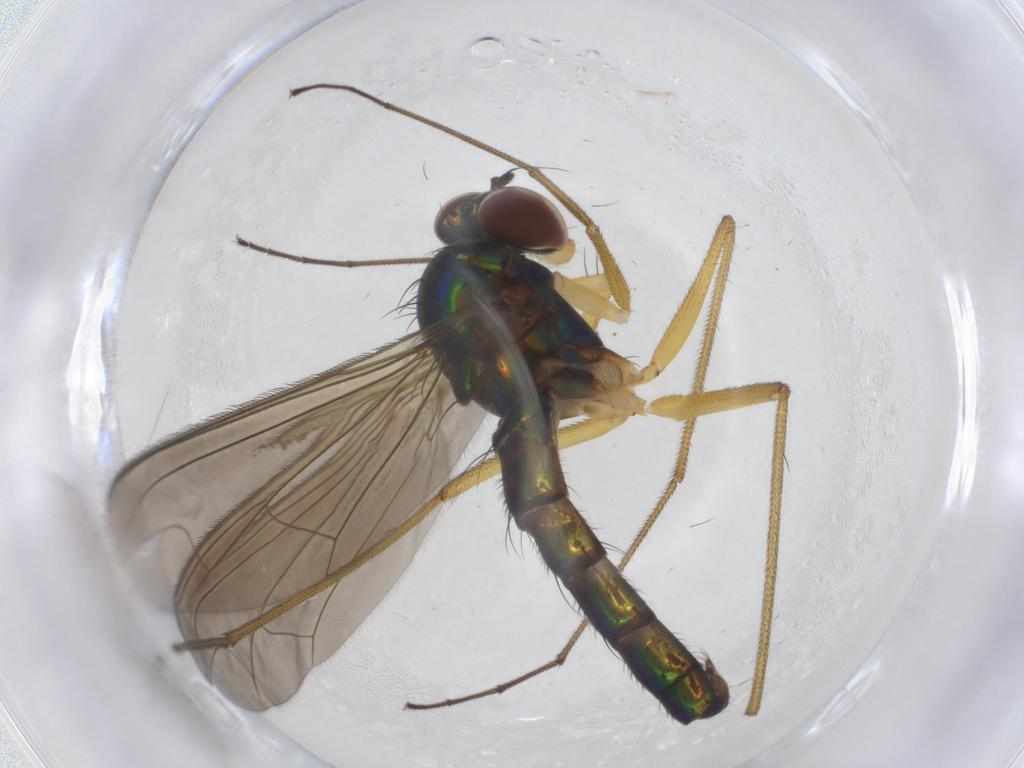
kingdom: Animalia
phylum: Arthropoda
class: Insecta
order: Diptera
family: Dolichopodidae
